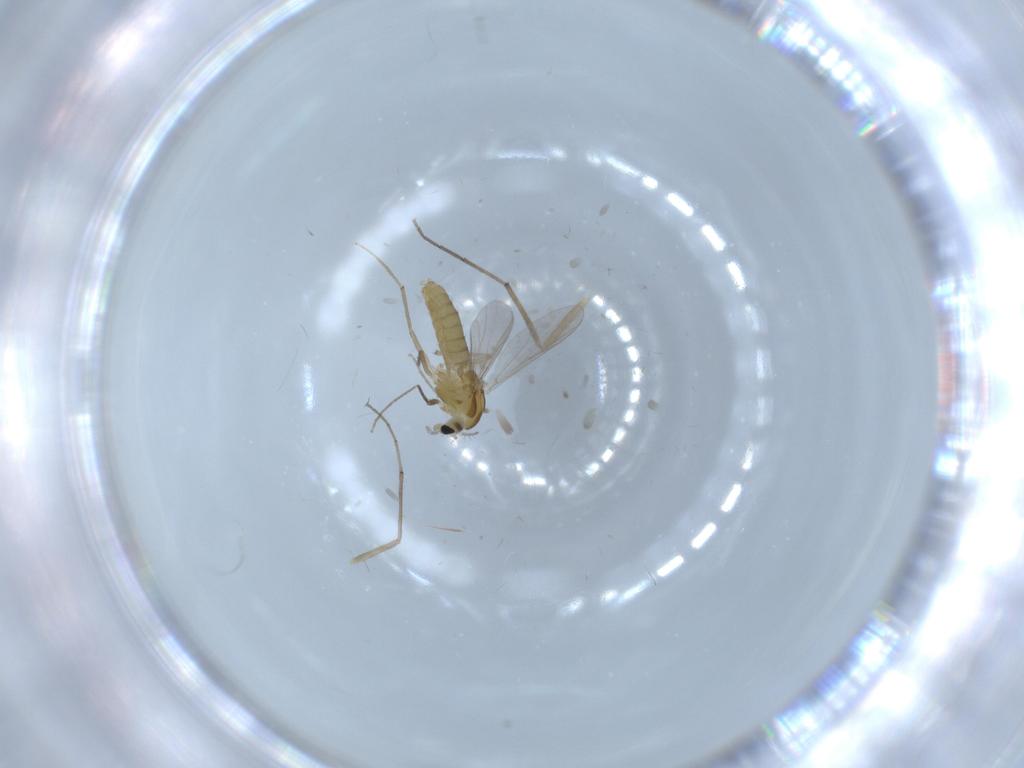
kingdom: Animalia
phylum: Arthropoda
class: Insecta
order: Diptera
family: Chironomidae
